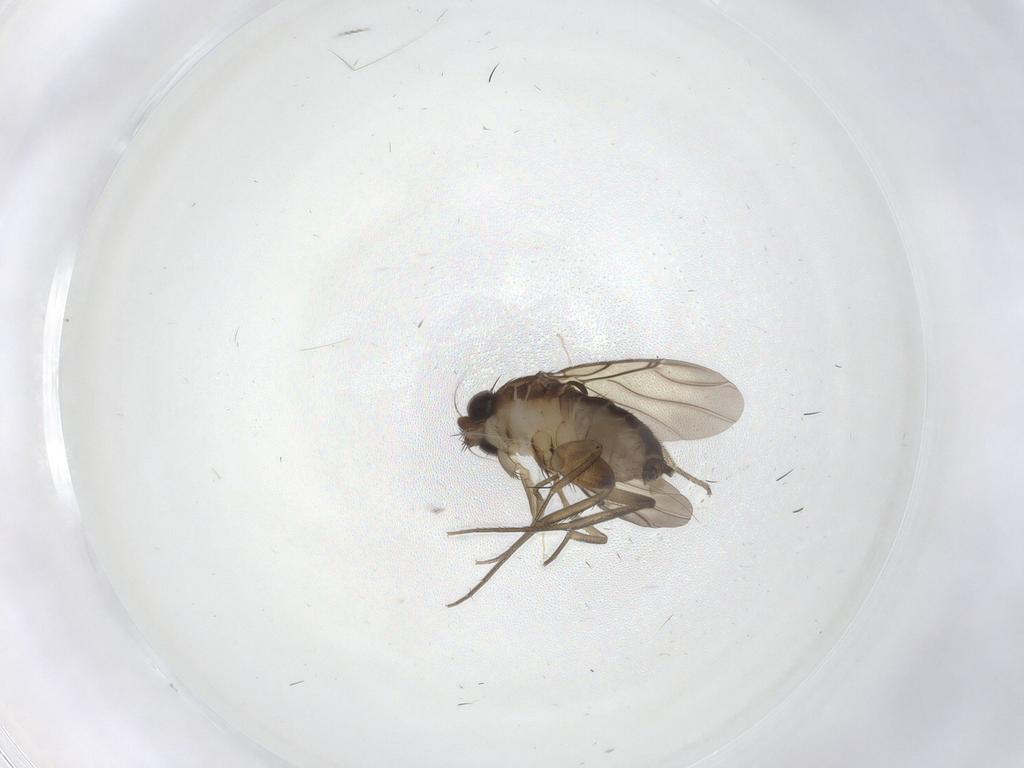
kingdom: Animalia
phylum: Arthropoda
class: Insecta
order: Diptera
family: Phoridae
